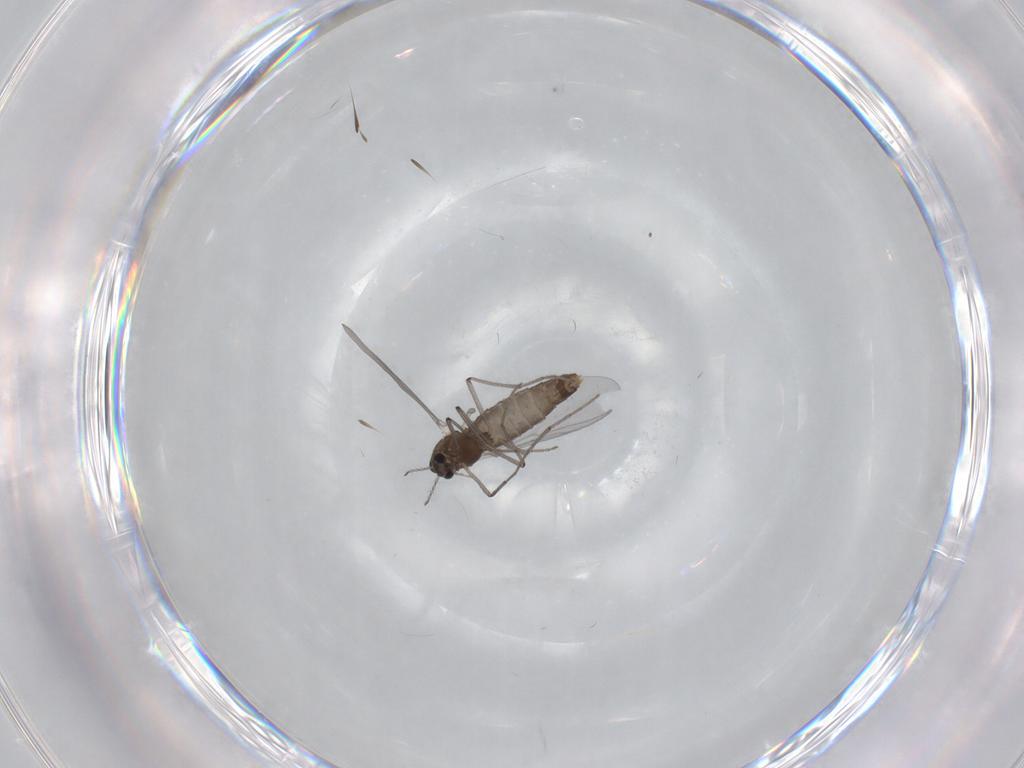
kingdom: Animalia
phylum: Arthropoda
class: Insecta
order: Diptera
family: Chironomidae
